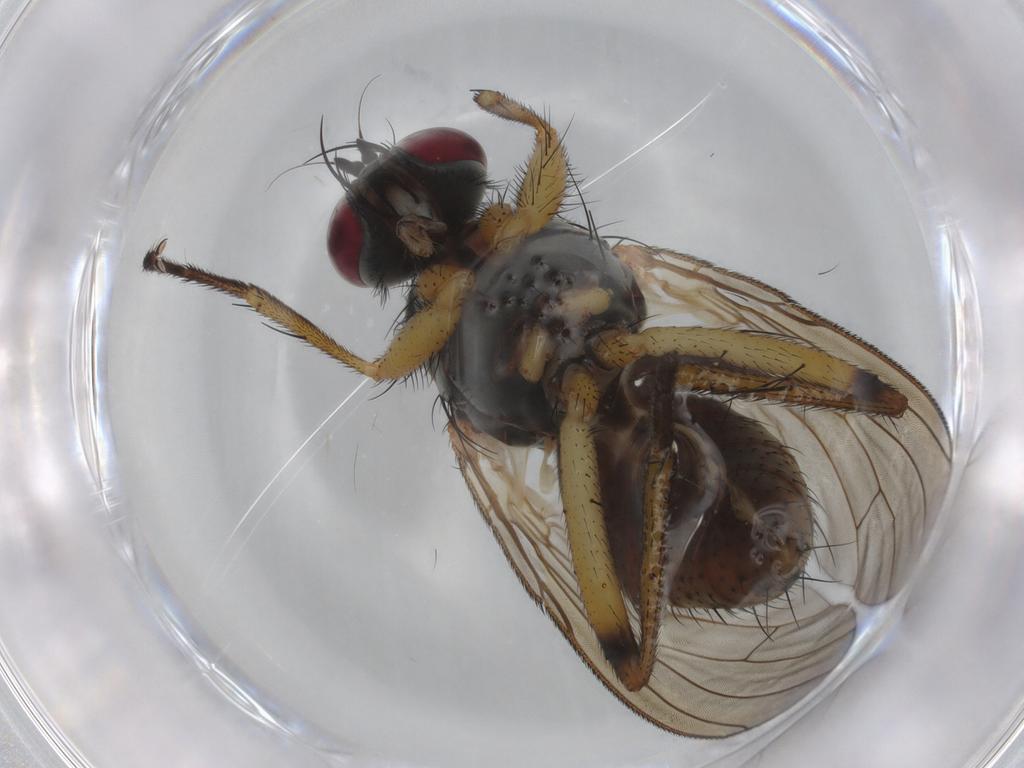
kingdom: Animalia
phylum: Arthropoda
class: Insecta
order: Diptera
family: Muscidae
